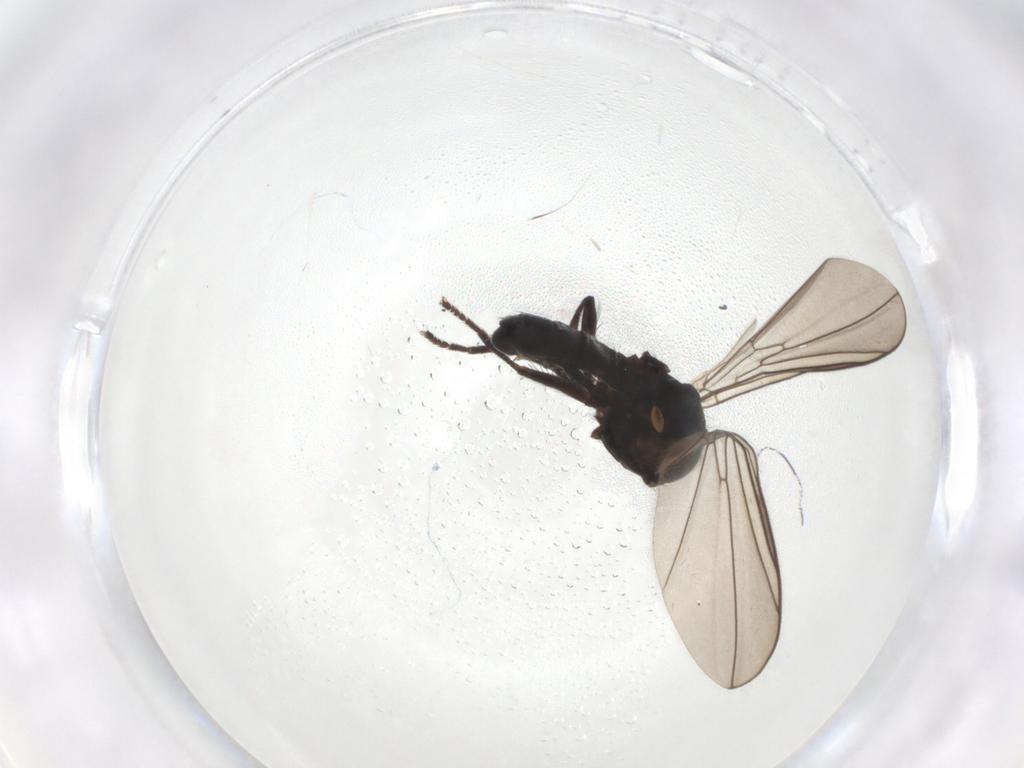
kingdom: Animalia
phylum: Arthropoda
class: Insecta
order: Diptera
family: Pipunculidae
